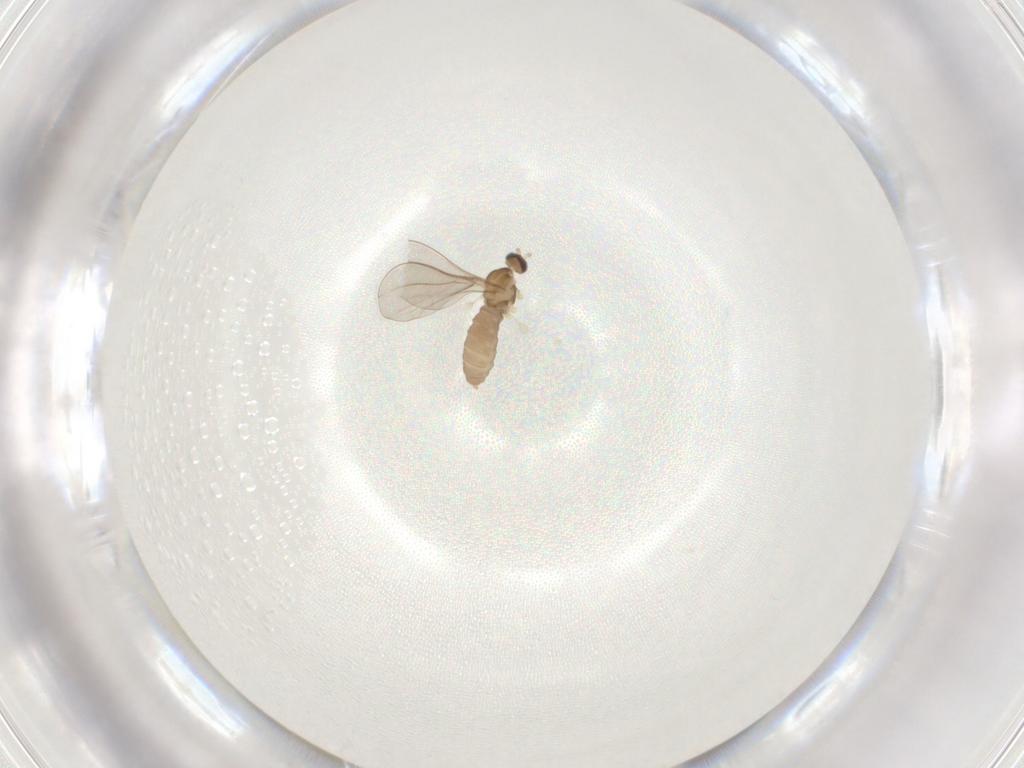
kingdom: Animalia
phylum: Arthropoda
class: Insecta
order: Diptera
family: Cecidomyiidae
